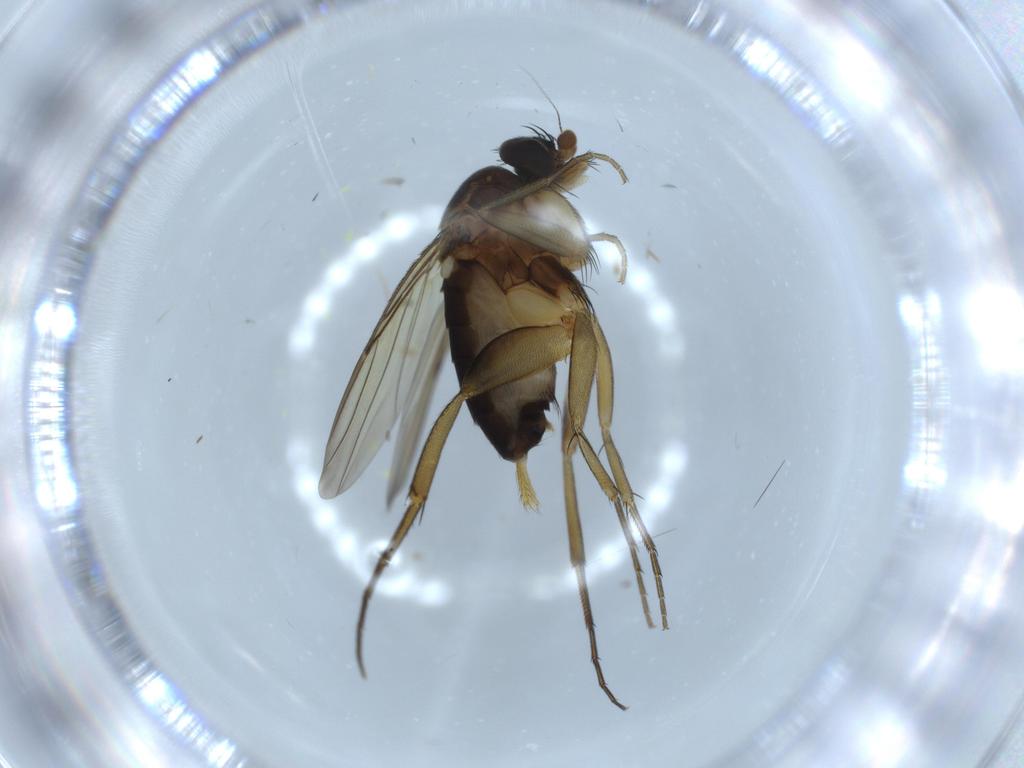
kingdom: Animalia
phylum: Arthropoda
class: Insecta
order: Diptera
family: Phoridae
